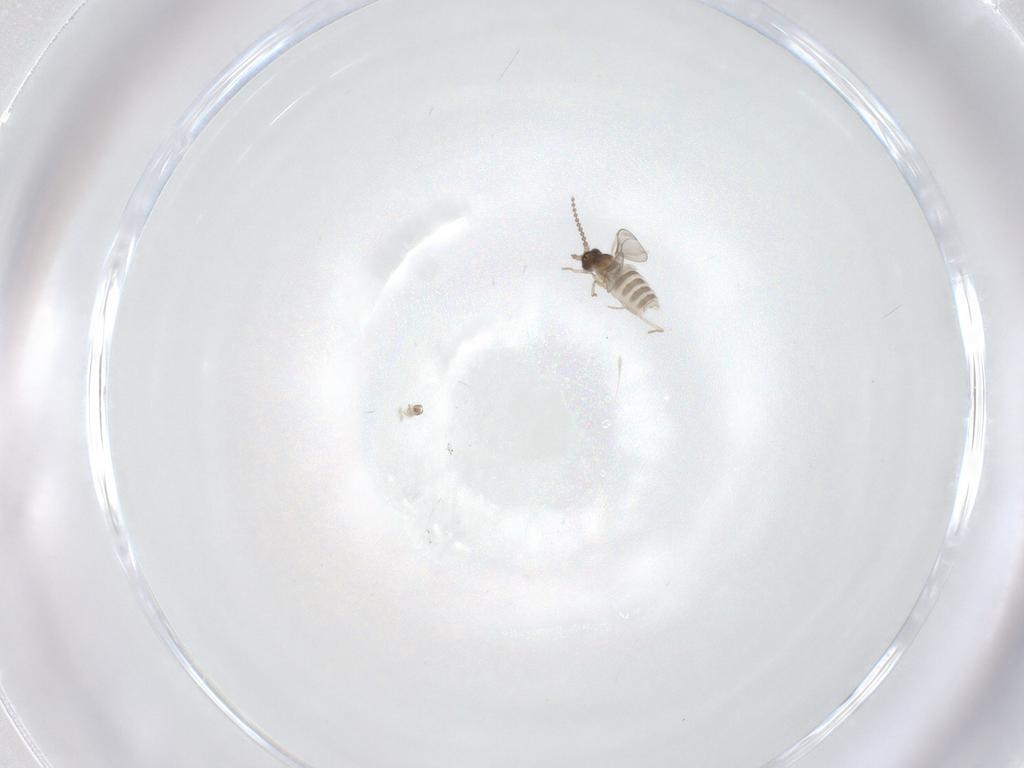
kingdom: Animalia
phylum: Arthropoda
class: Insecta
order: Diptera
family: Cecidomyiidae
